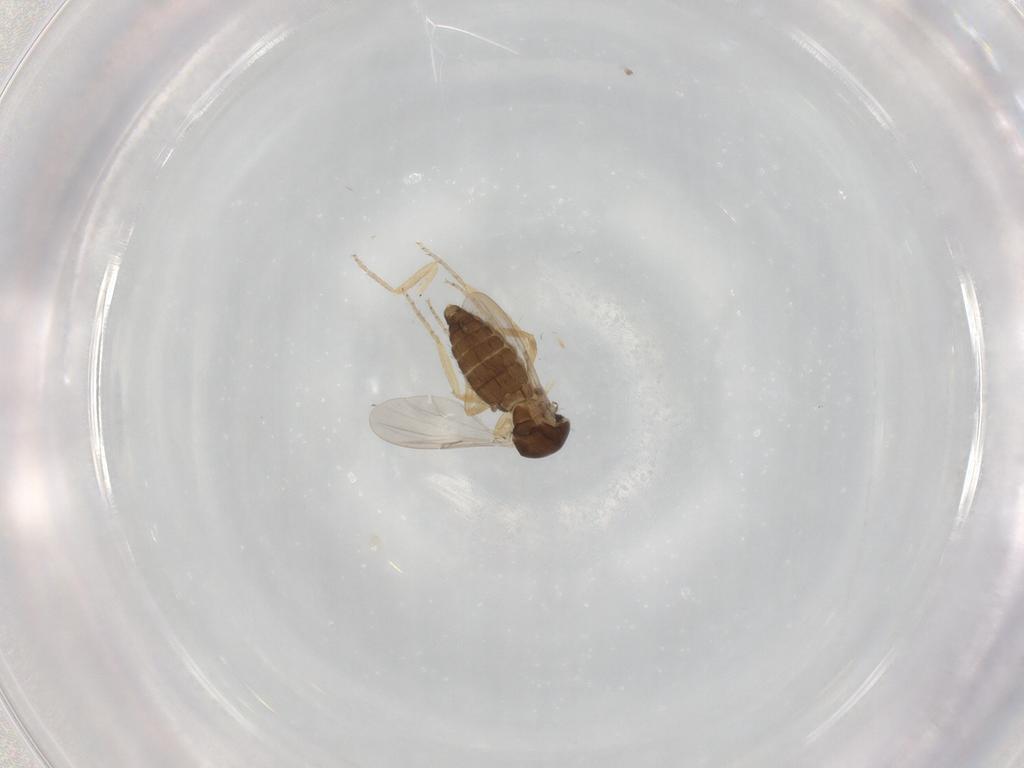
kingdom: Animalia
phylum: Arthropoda
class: Insecta
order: Diptera
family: Ceratopogonidae
